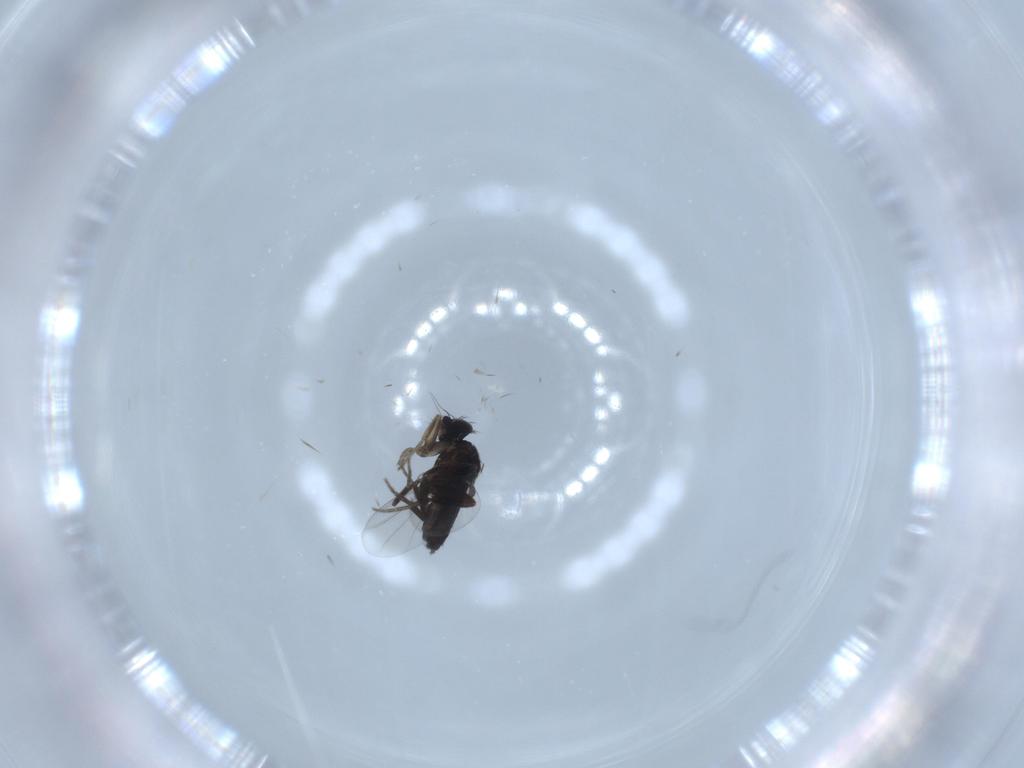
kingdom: Animalia
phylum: Arthropoda
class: Insecta
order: Diptera
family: Phoridae
